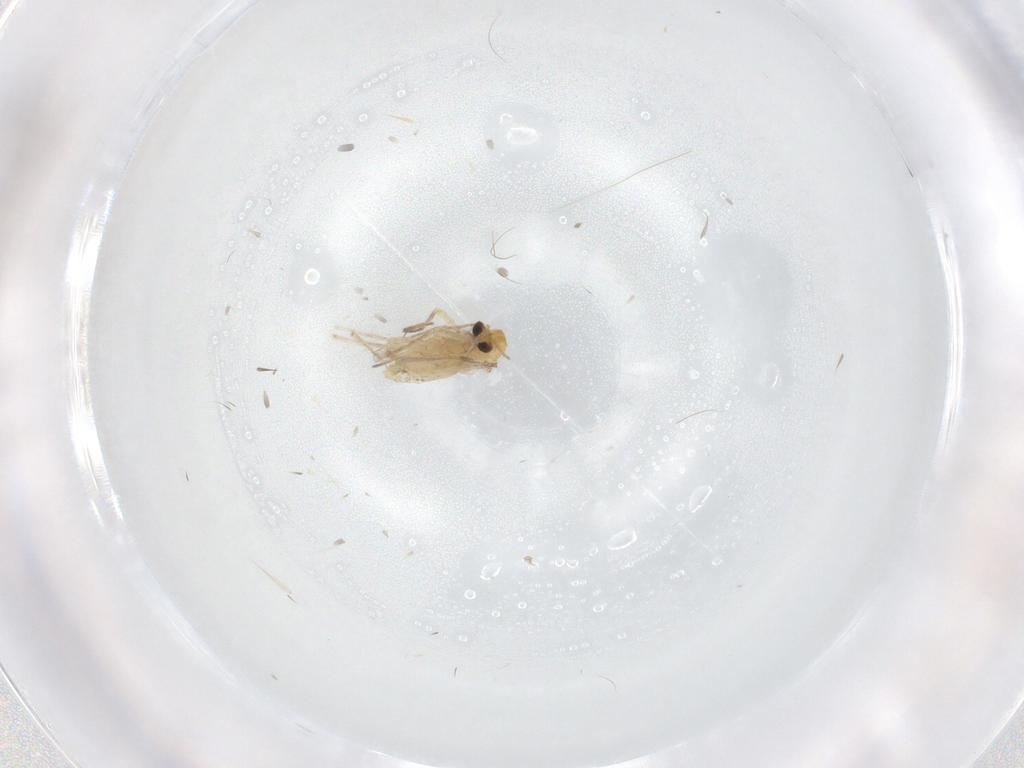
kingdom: Animalia
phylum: Arthropoda
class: Insecta
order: Diptera
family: Chironomidae
